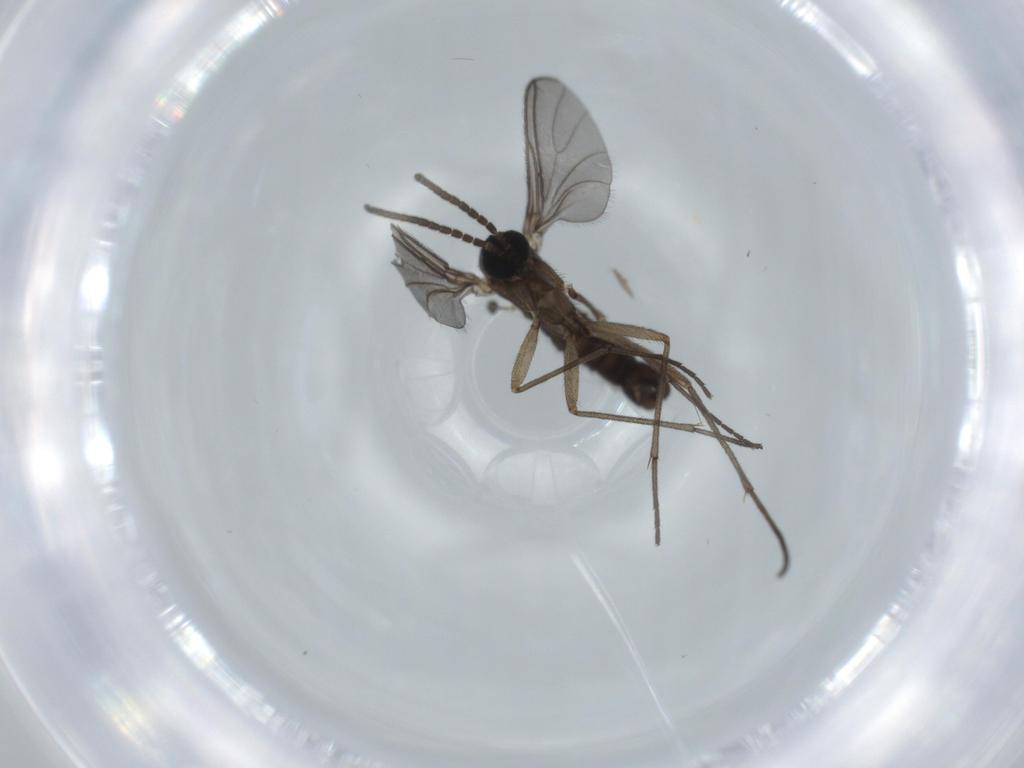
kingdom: Animalia
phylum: Arthropoda
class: Insecta
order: Diptera
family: Sciaridae
